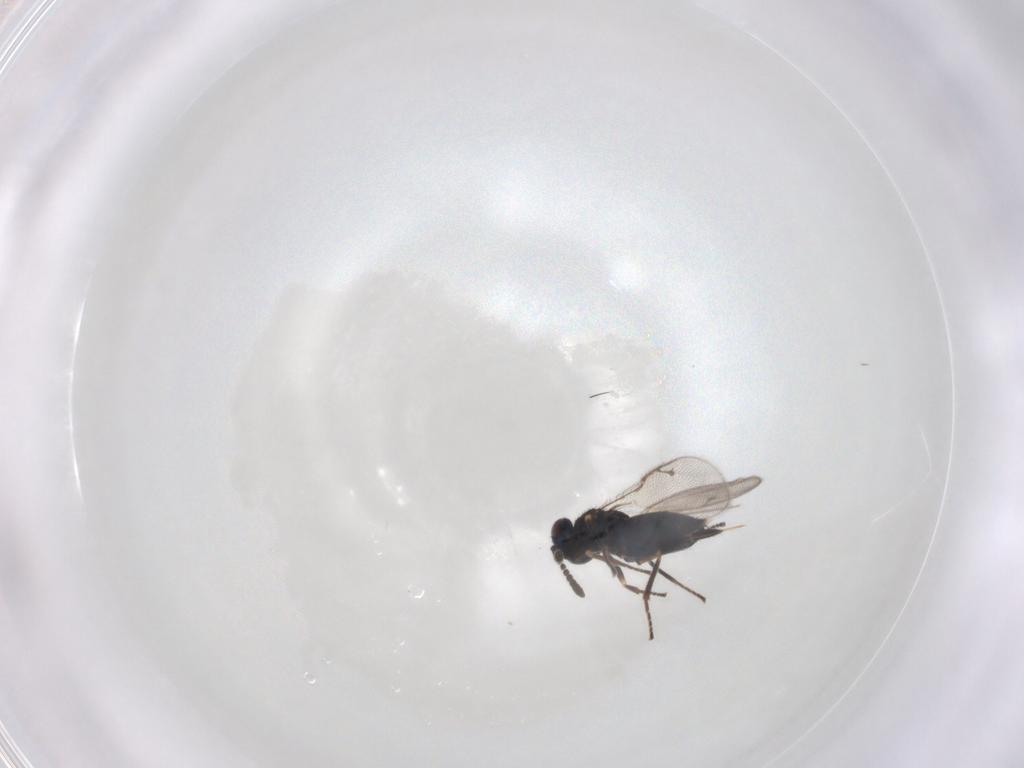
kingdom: Animalia
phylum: Arthropoda
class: Insecta
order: Hymenoptera
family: Pirenidae
